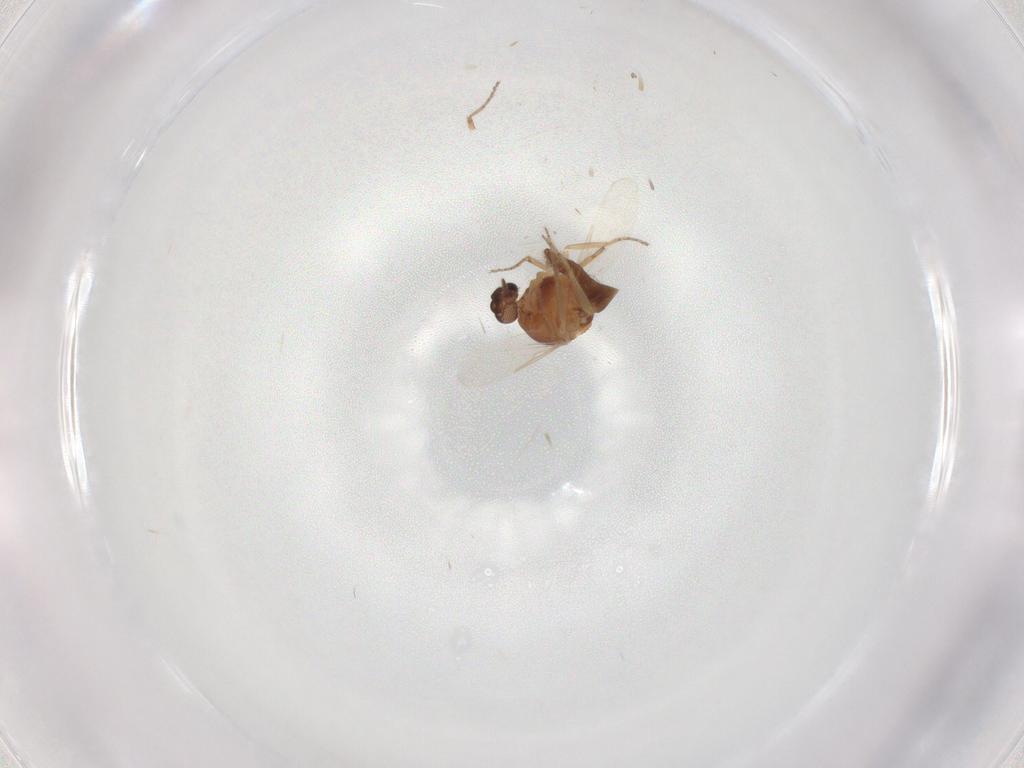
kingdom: Animalia
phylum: Arthropoda
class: Insecta
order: Diptera
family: Ceratopogonidae
